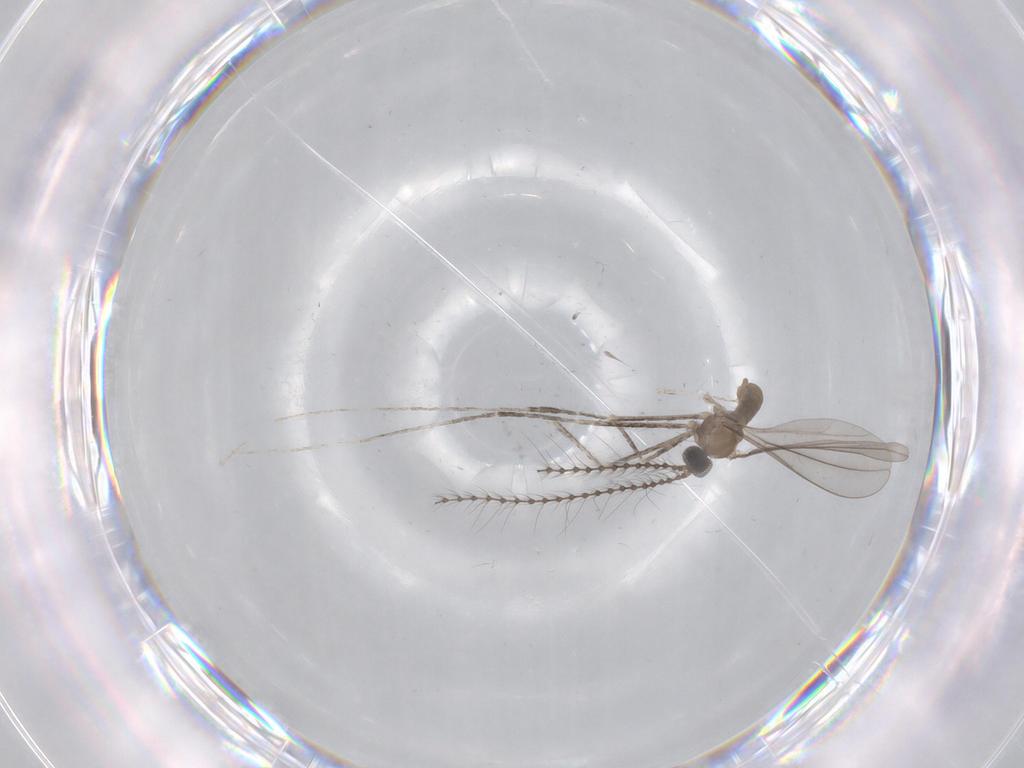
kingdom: Animalia
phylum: Arthropoda
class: Insecta
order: Diptera
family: Cecidomyiidae
